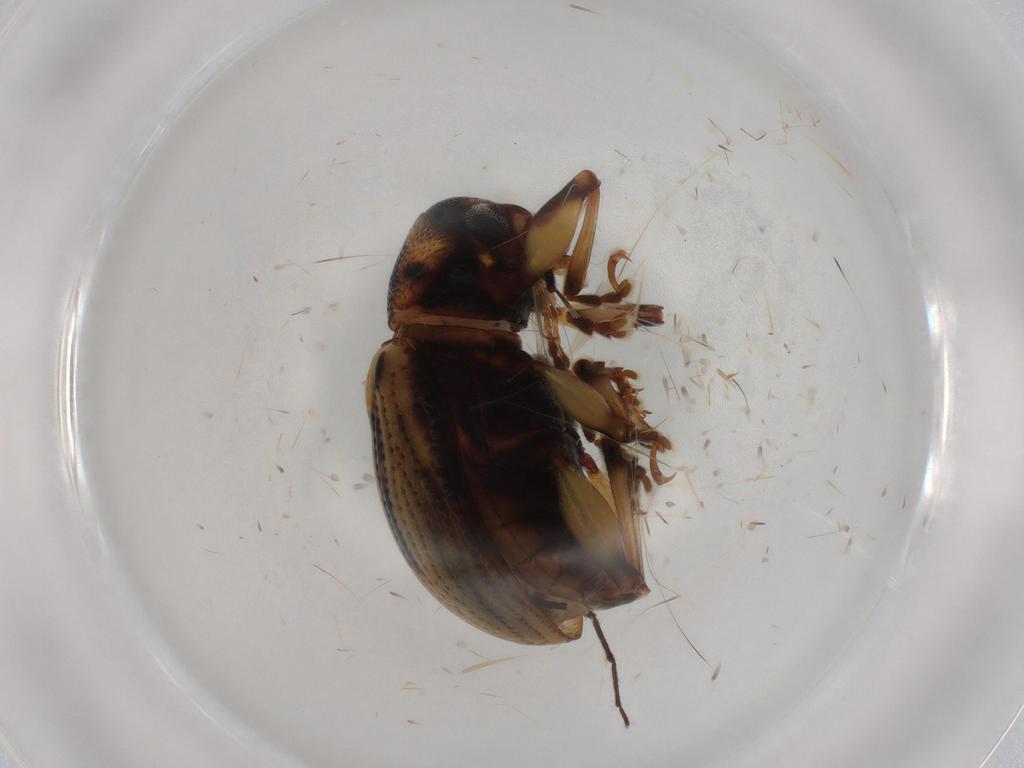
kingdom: Animalia
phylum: Arthropoda
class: Insecta
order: Coleoptera
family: Chrysomelidae
